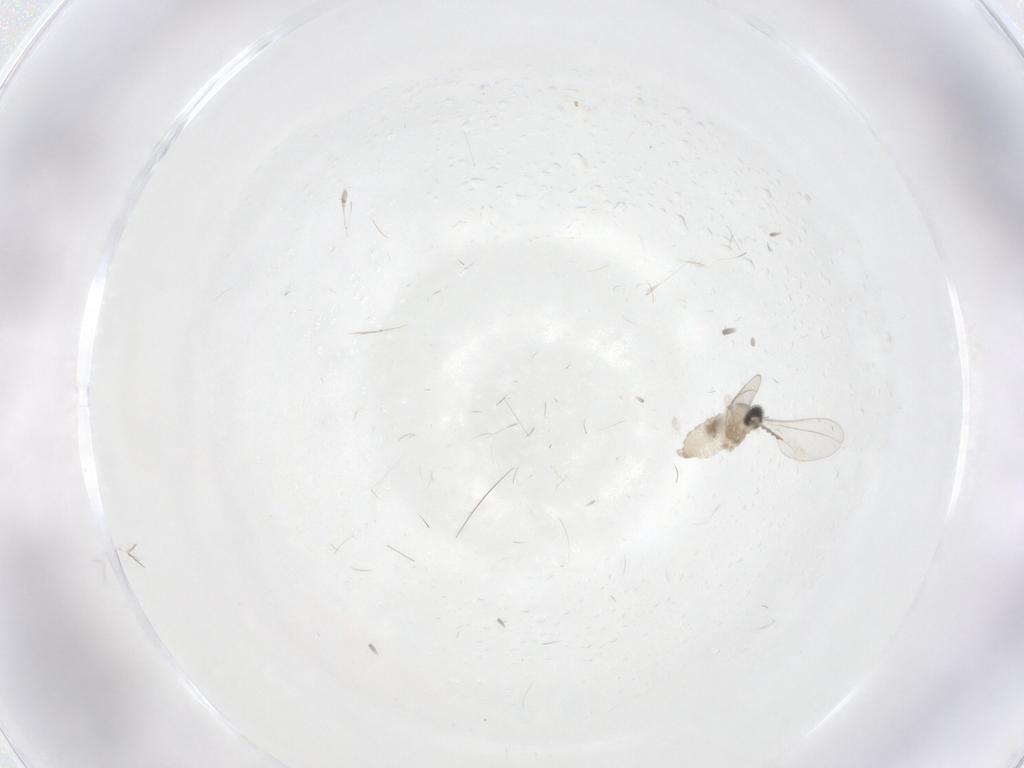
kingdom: Animalia
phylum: Arthropoda
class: Insecta
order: Diptera
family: Cecidomyiidae
